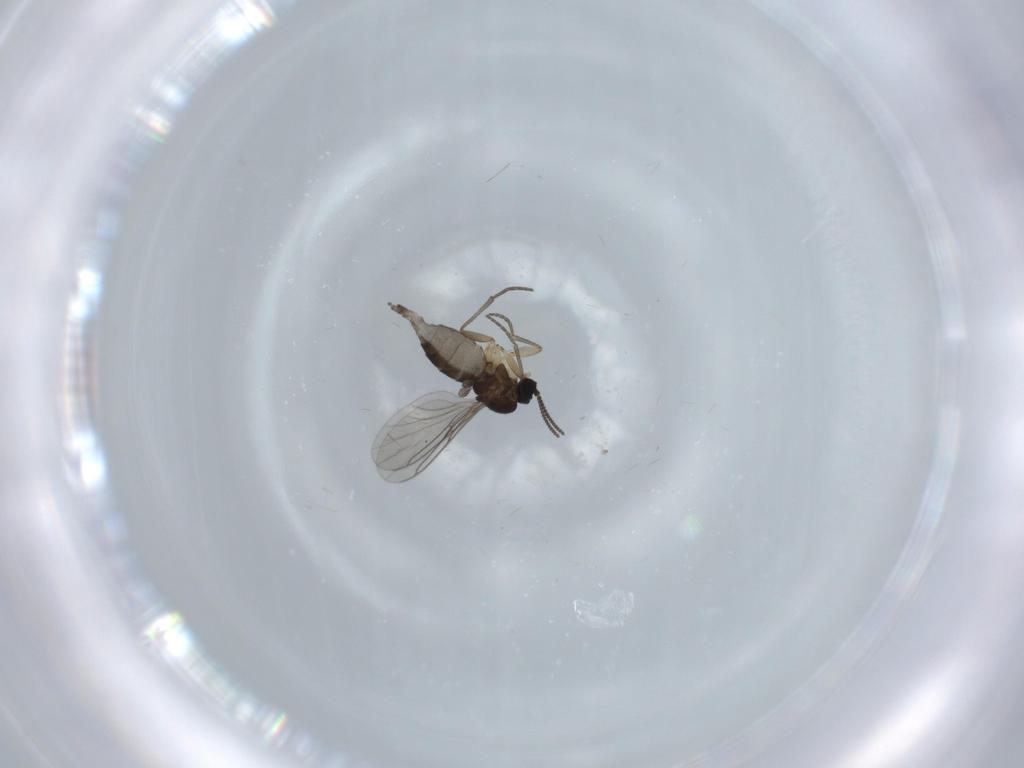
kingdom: Animalia
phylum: Arthropoda
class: Insecta
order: Diptera
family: Sciaridae
